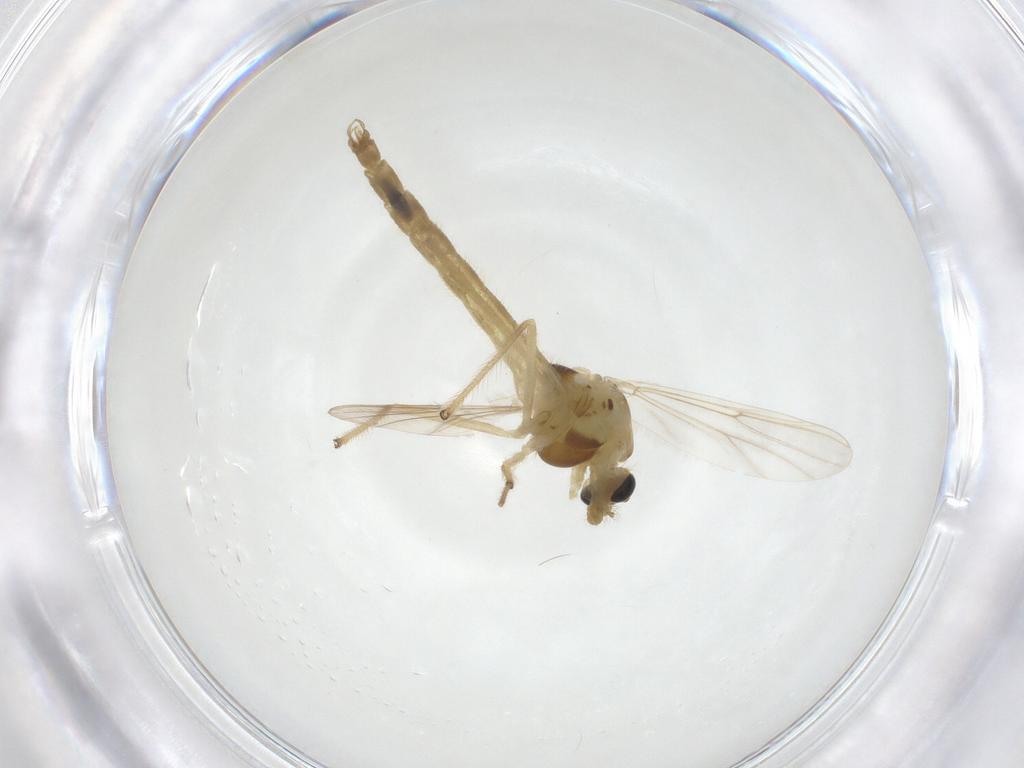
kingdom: Animalia
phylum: Arthropoda
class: Insecta
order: Diptera
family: Chironomidae
